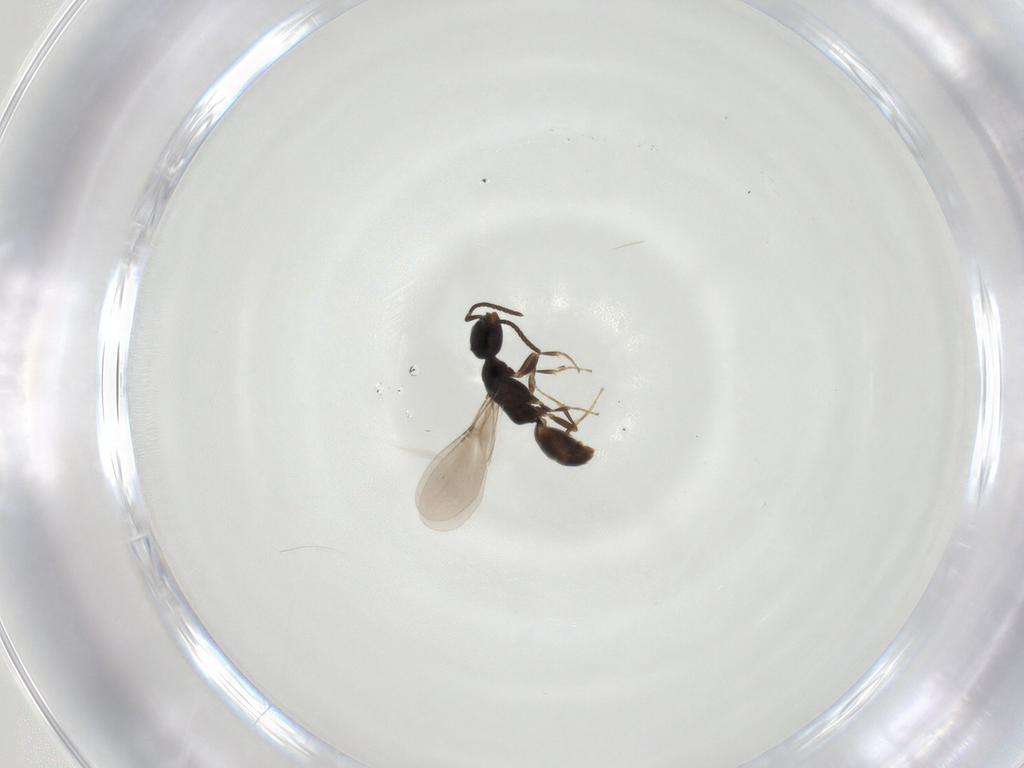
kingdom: Animalia
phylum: Arthropoda
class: Insecta
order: Hymenoptera
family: Bethylidae
